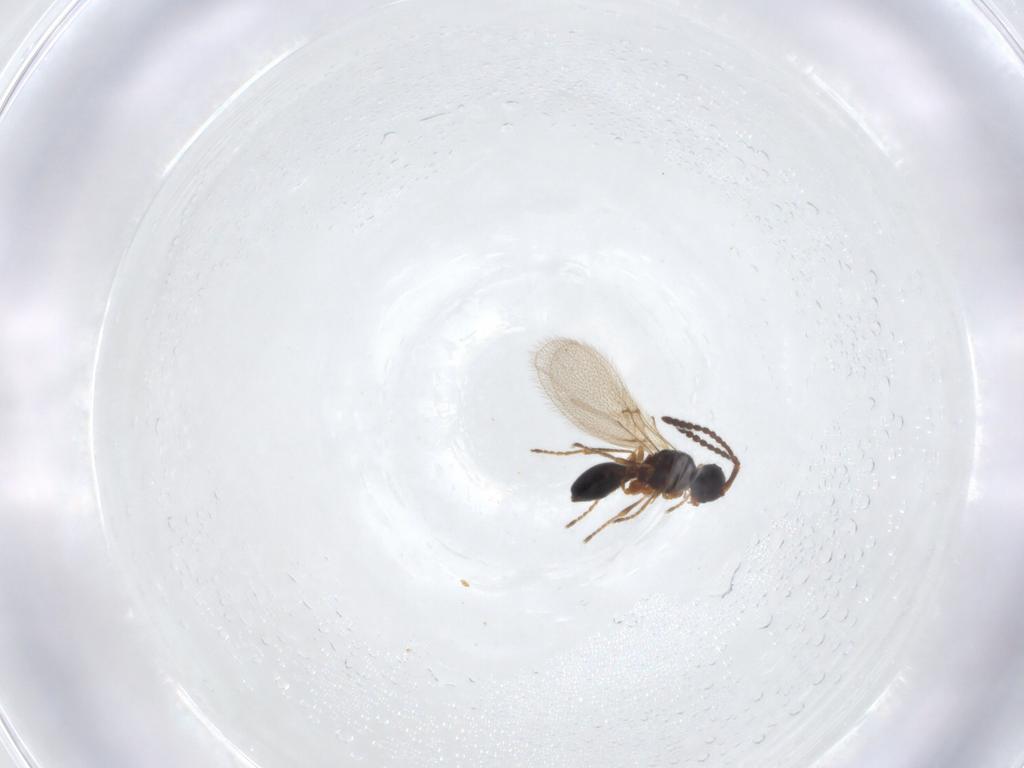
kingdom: Animalia
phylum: Arthropoda
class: Insecta
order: Hymenoptera
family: Diapriidae
